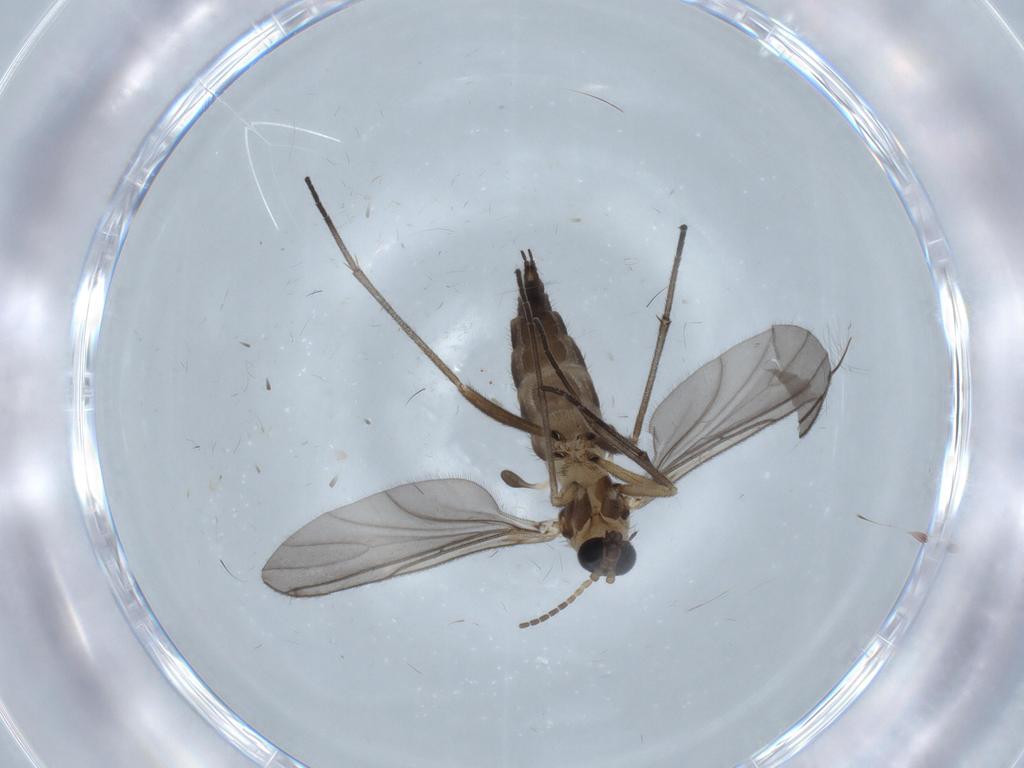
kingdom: Animalia
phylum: Arthropoda
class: Insecta
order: Diptera
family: Sciaridae
